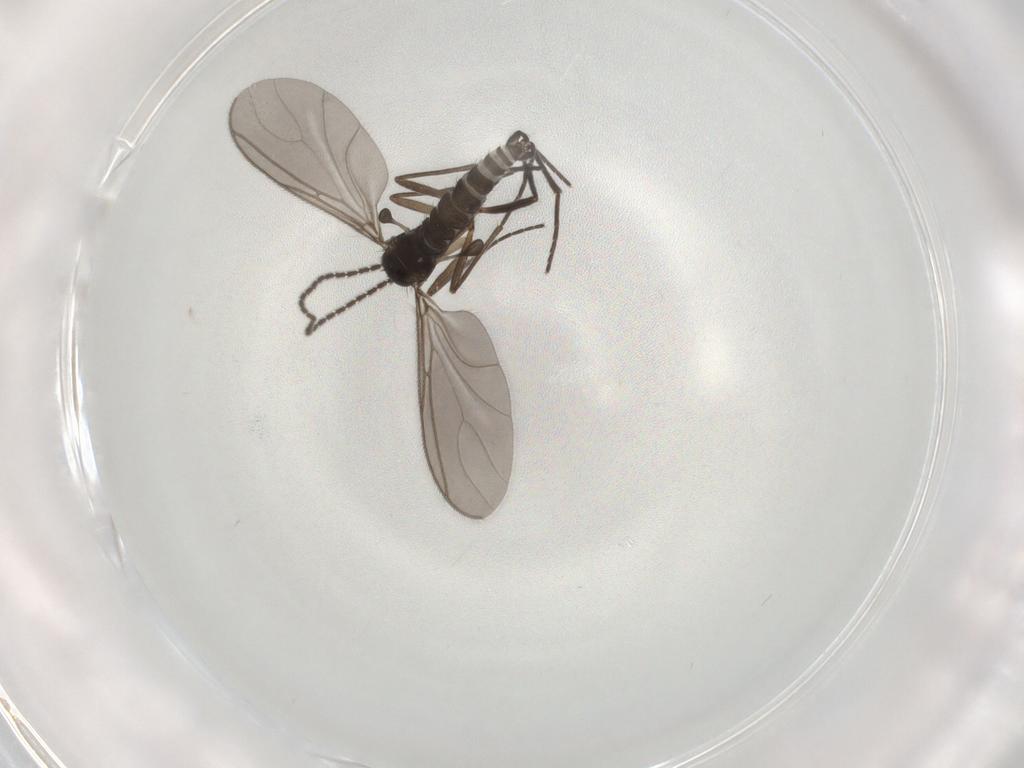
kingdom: Animalia
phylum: Arthropoda
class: Insecta
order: Diptera
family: Sciaridae
